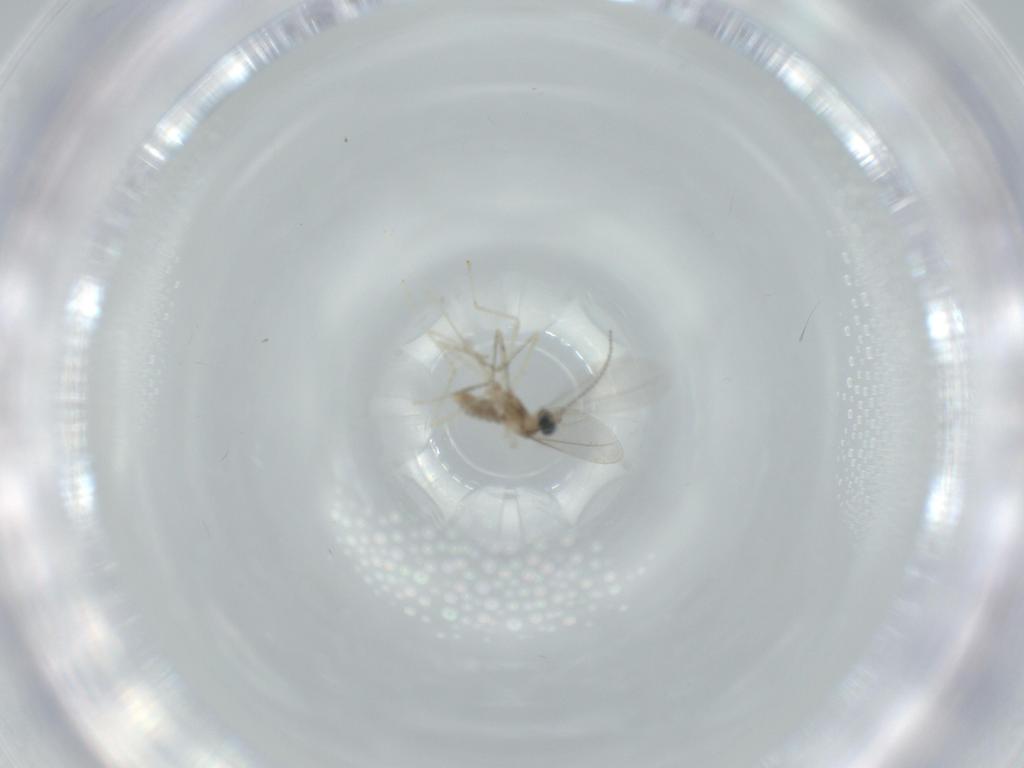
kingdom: Animalia
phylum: Arthropoda
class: Insecta
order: Diptera
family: Cecidomyiidae
